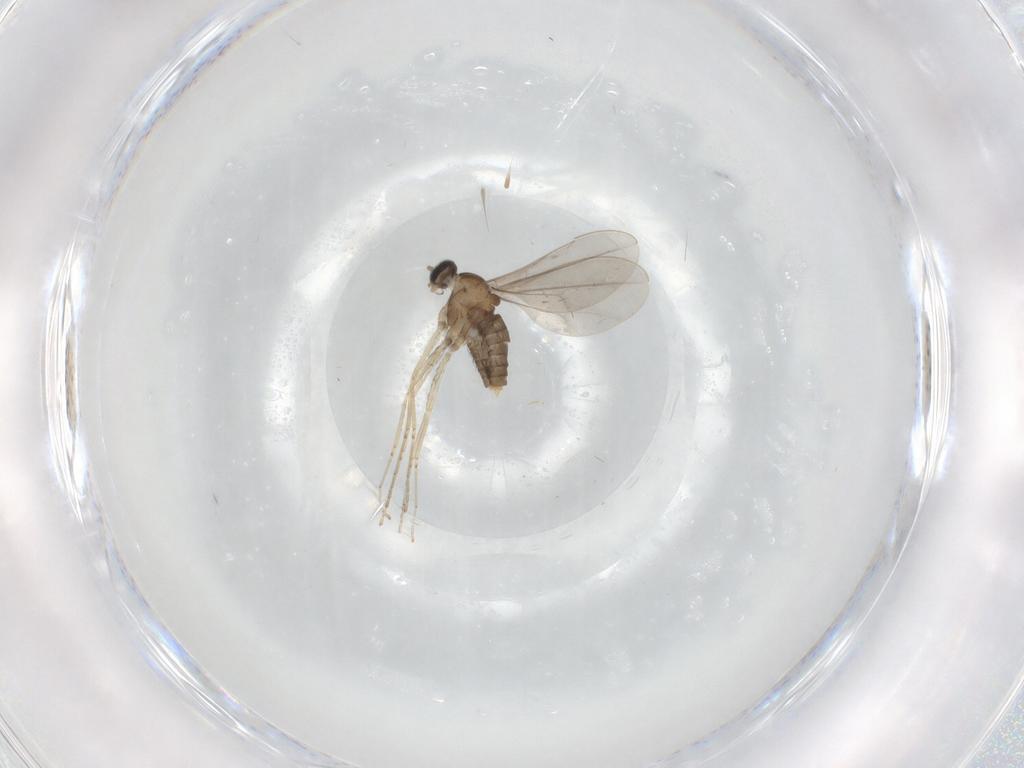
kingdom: Animalia
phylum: Arthropoda
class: Insecta
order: Diptera
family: Cecidomyiidae
